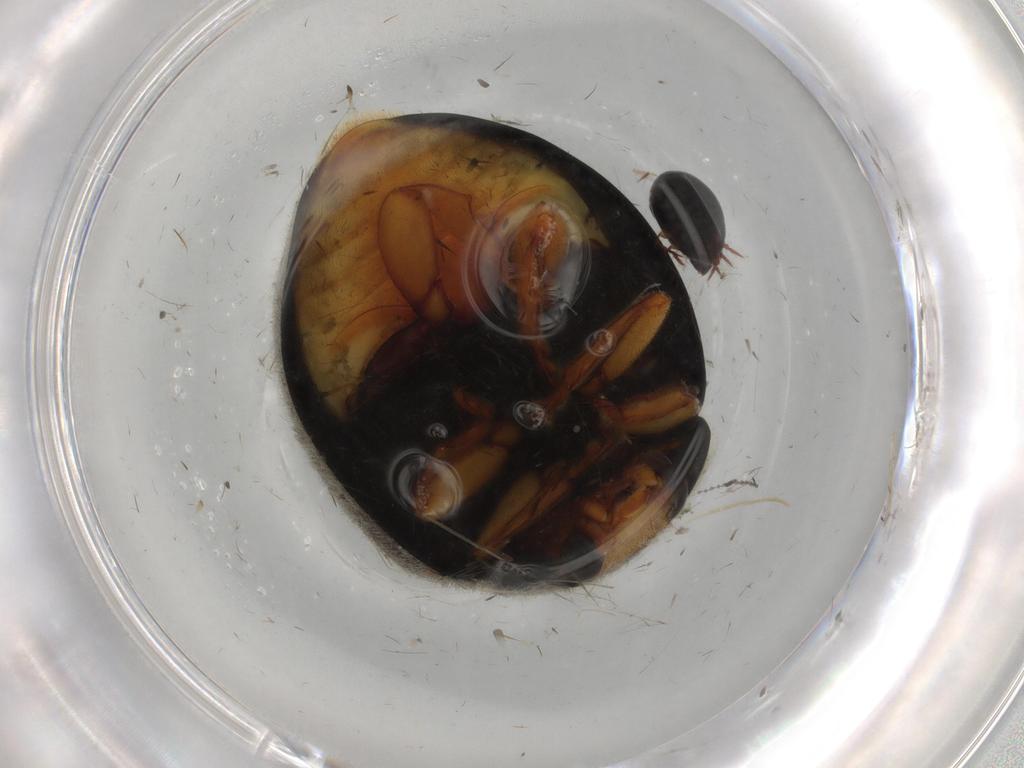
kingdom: Animalia
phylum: Arthropoda
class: Insecta
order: Coleoptera
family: Coccinellidae
